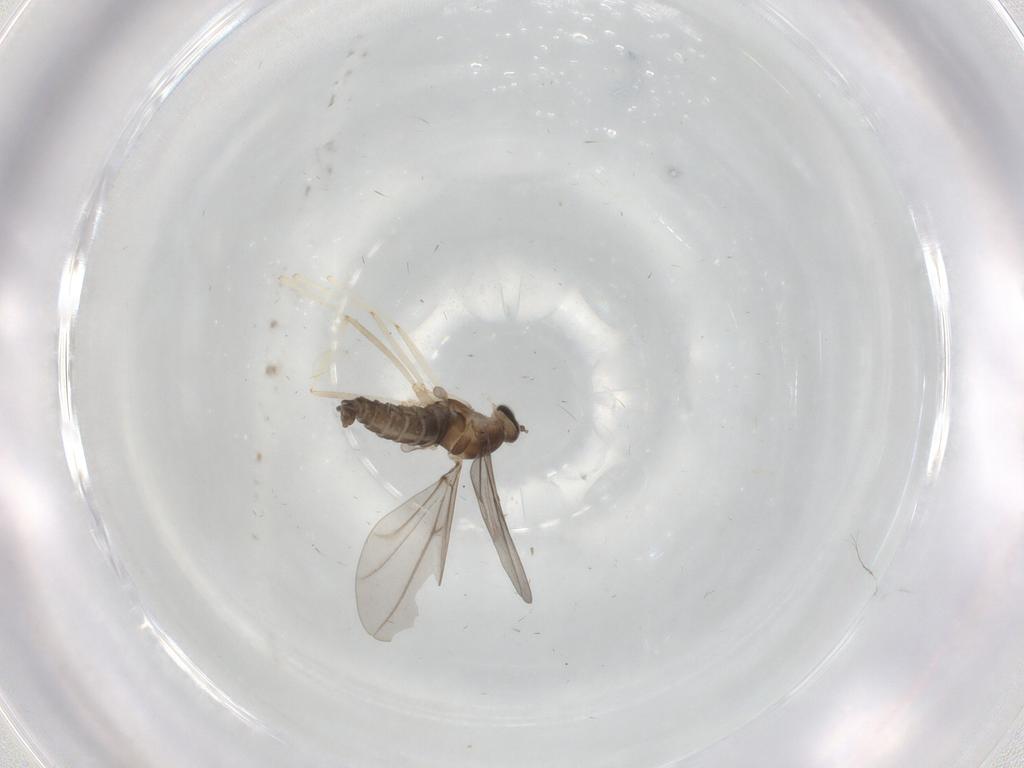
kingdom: Animalia
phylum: Arthropoda
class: Insecta
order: Diptera
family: Cecidomyiidae
